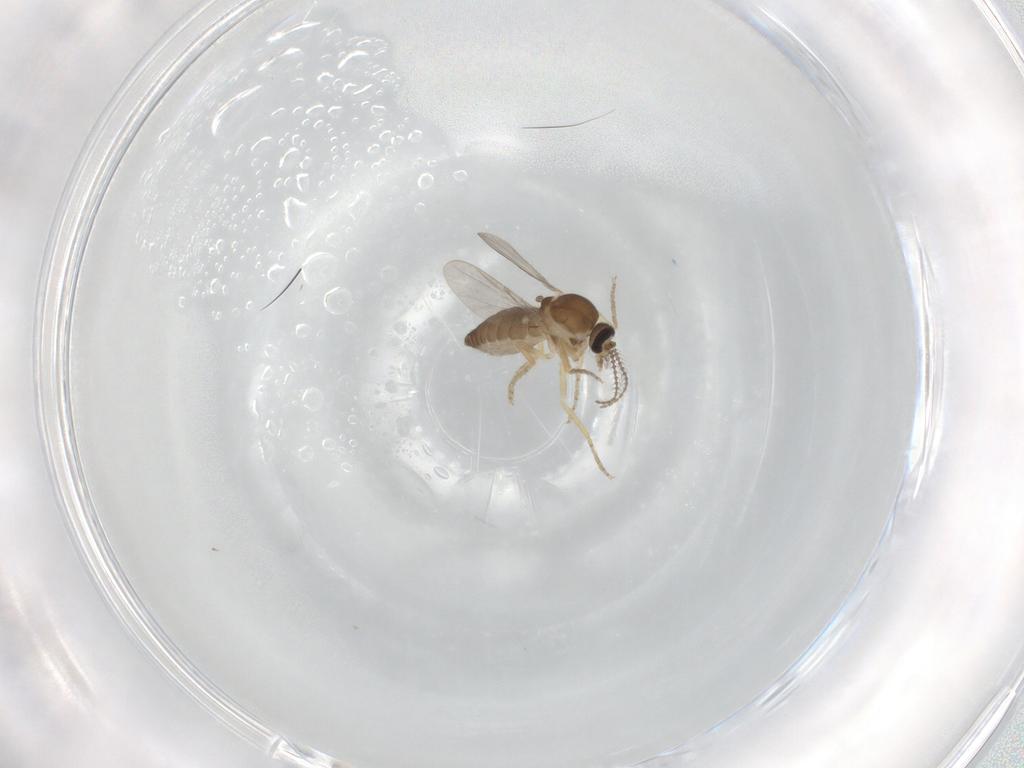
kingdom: Animalia
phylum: Arthropoda
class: Insecta
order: Diptera
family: Ceratopogonidae
